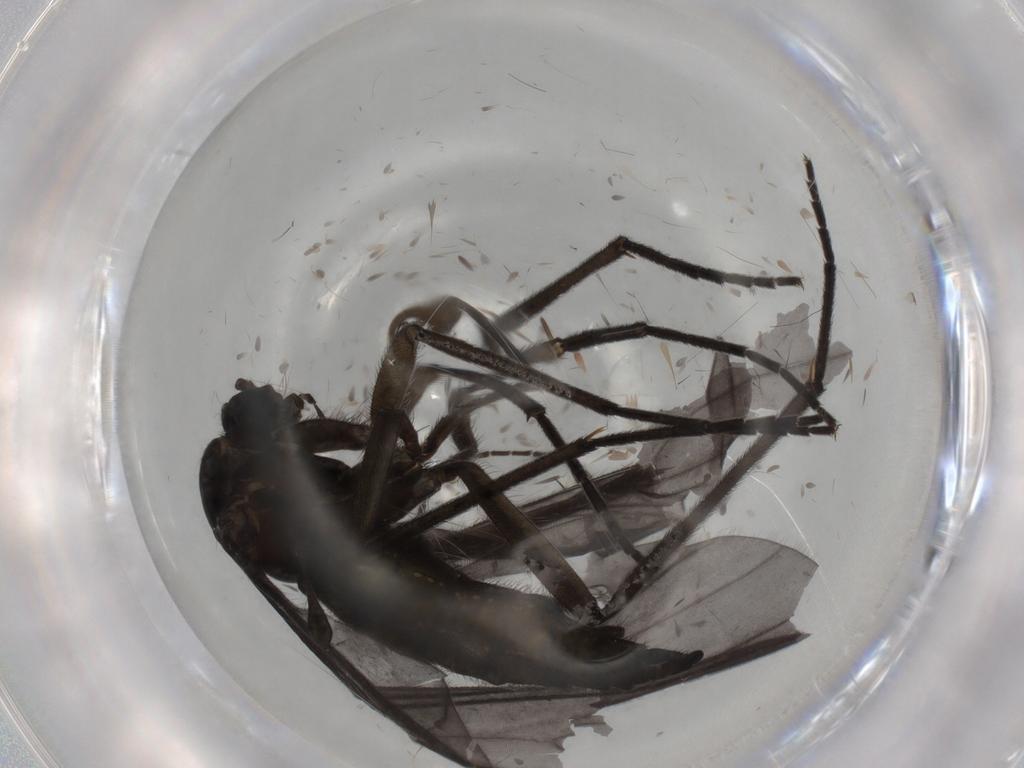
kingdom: Animalia
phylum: Arthropoda
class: Insecta
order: Diptera
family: Sciaridae
